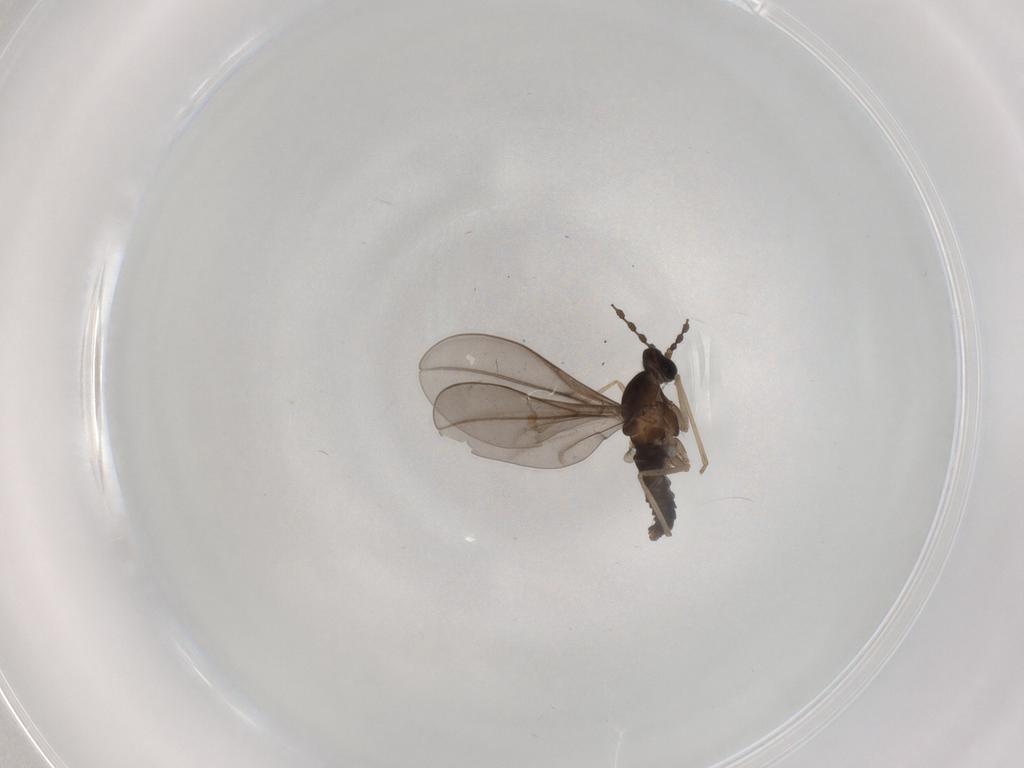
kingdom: Animalia
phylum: Arthropoda
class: Insecta
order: Diptera
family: Chironomidae
